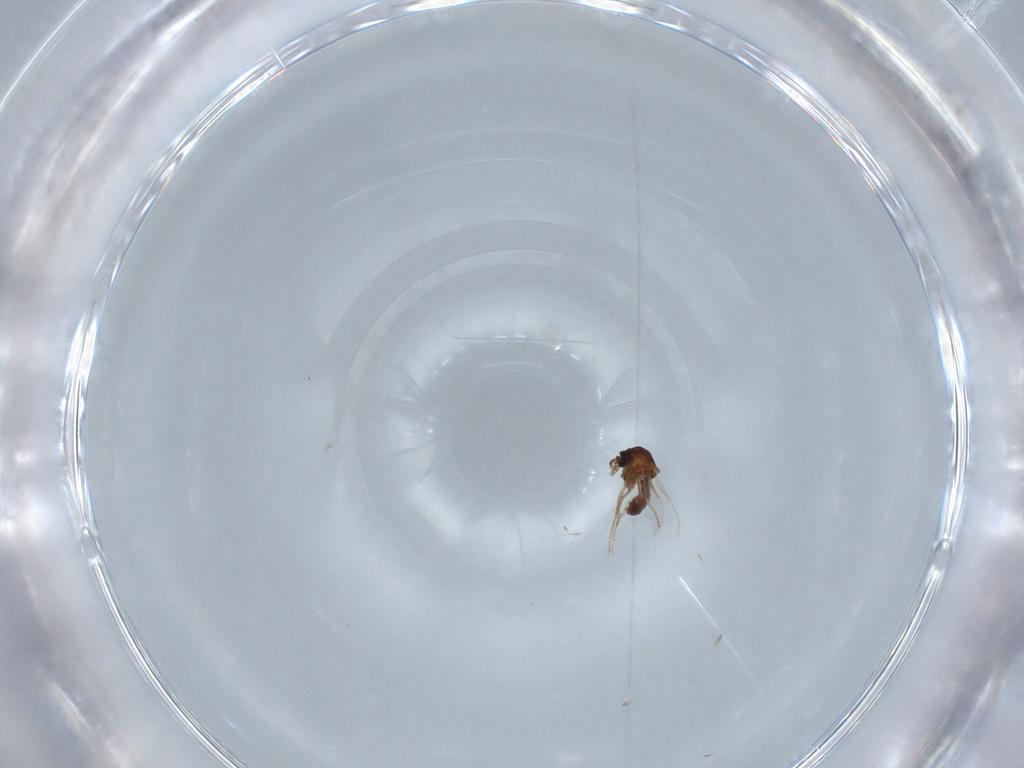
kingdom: Animalia
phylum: Arthropoda
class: Insecta
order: Diptera
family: Ceratopogonidae
